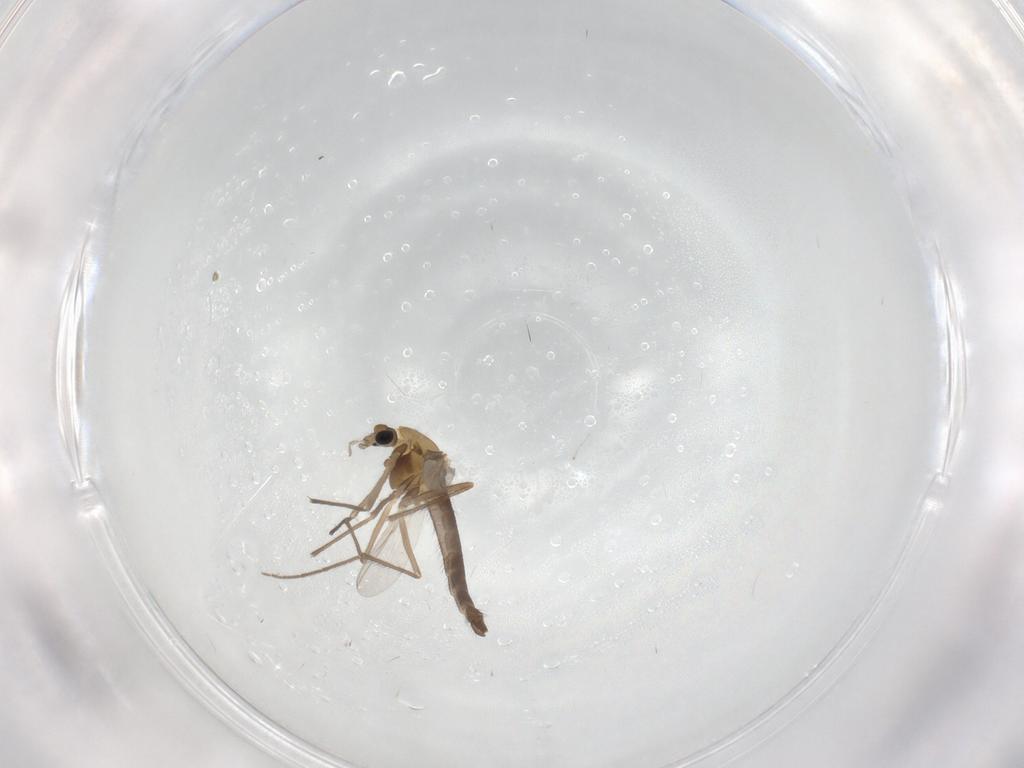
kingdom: Animalia
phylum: Arthropoda
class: Insecta
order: Diptera
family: Chironomidae
